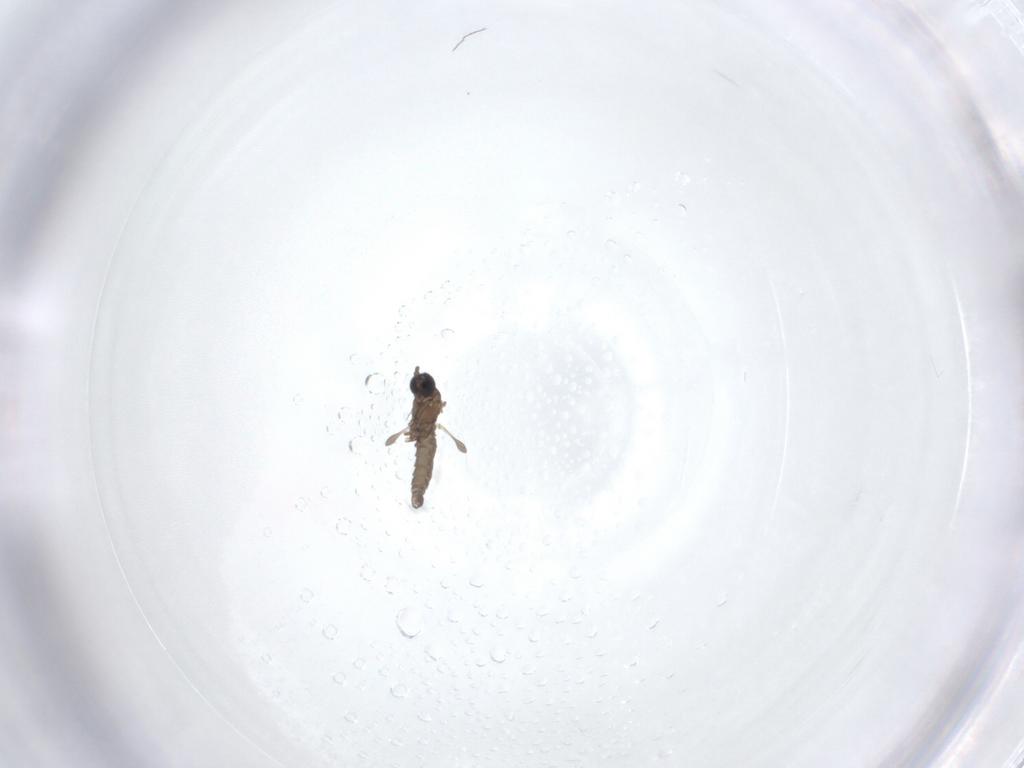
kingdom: Animalia
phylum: Arthropoda
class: Insecta
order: Diptera
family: Sciaridae
